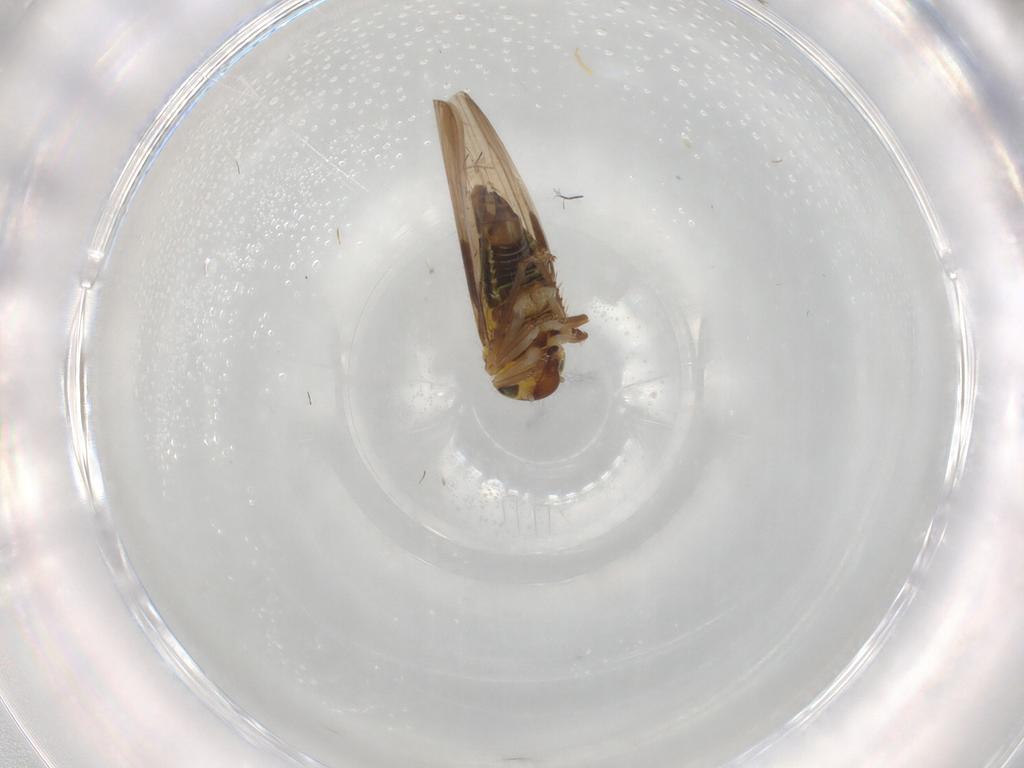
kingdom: Animalia
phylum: Arthropoda
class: Insecta
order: Hemiptera
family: Aleyrodidae
